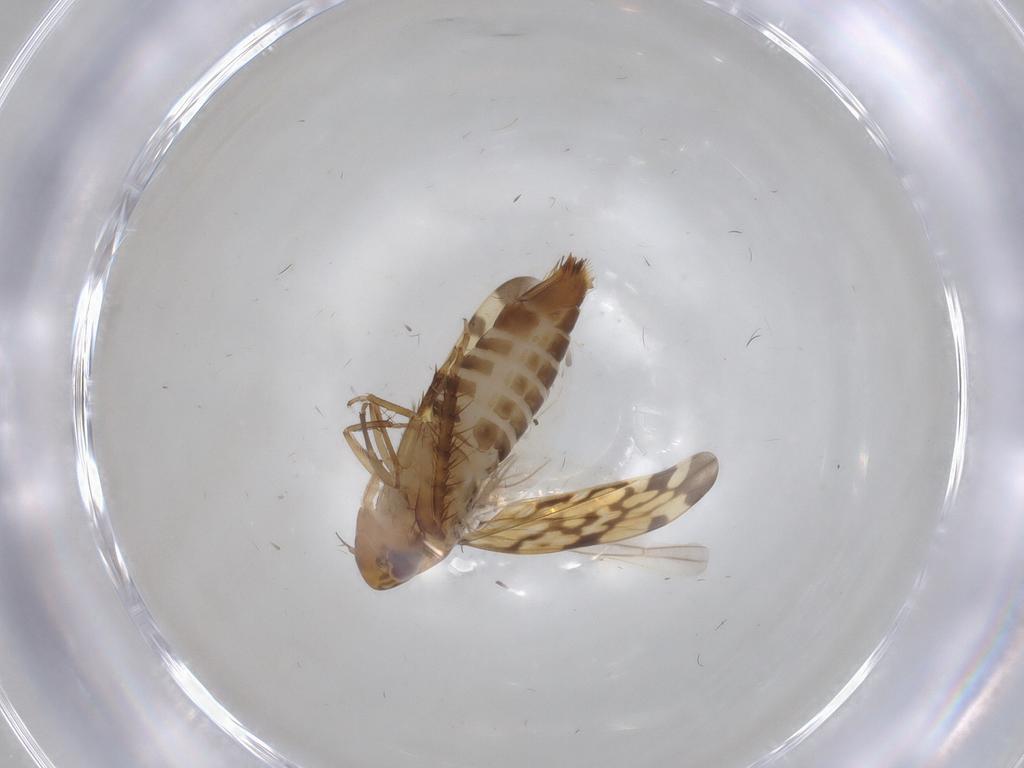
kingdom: Animalia
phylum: Arthropoda
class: Insecta
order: Hemiptera
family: Cicadellidae
